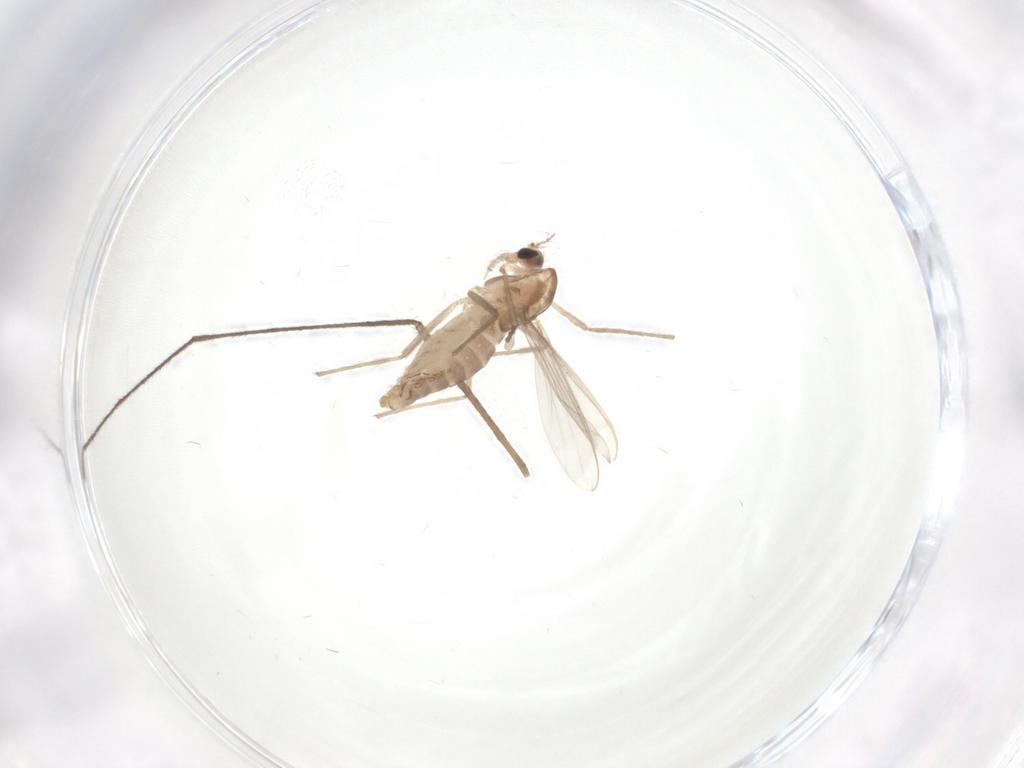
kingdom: Animalia
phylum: Arthropoda
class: Insecta
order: Diptera
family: Chironomidae
